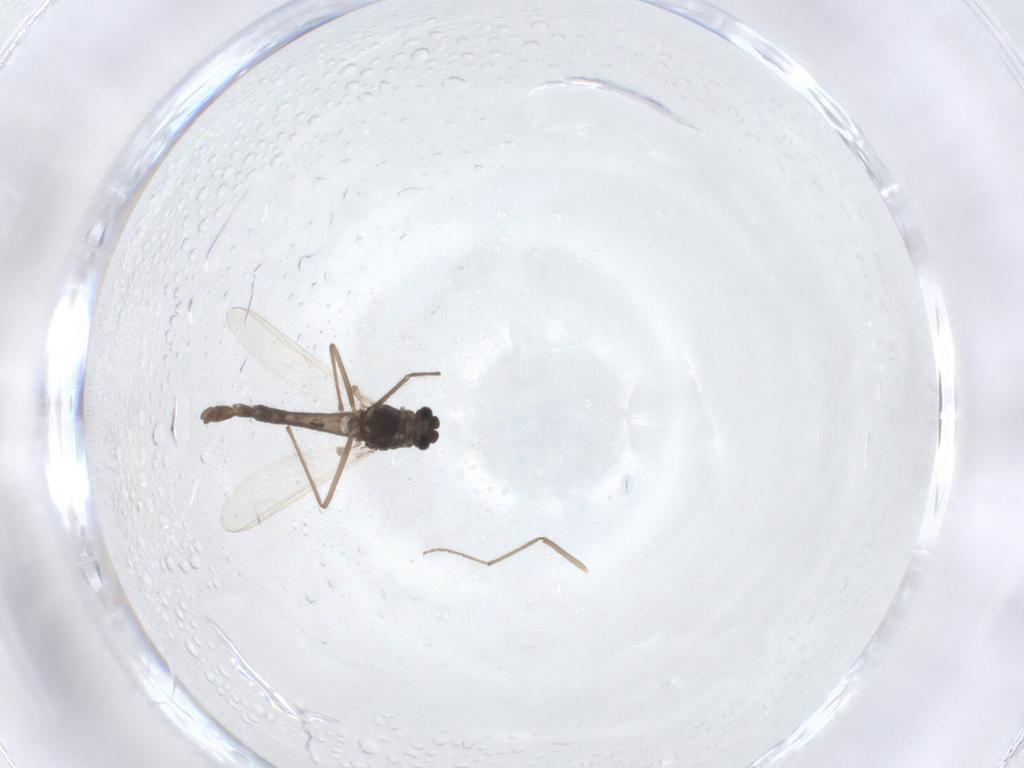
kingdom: Animalia
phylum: Arthropoda
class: Insecta
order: Diptera
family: Chironomidae
